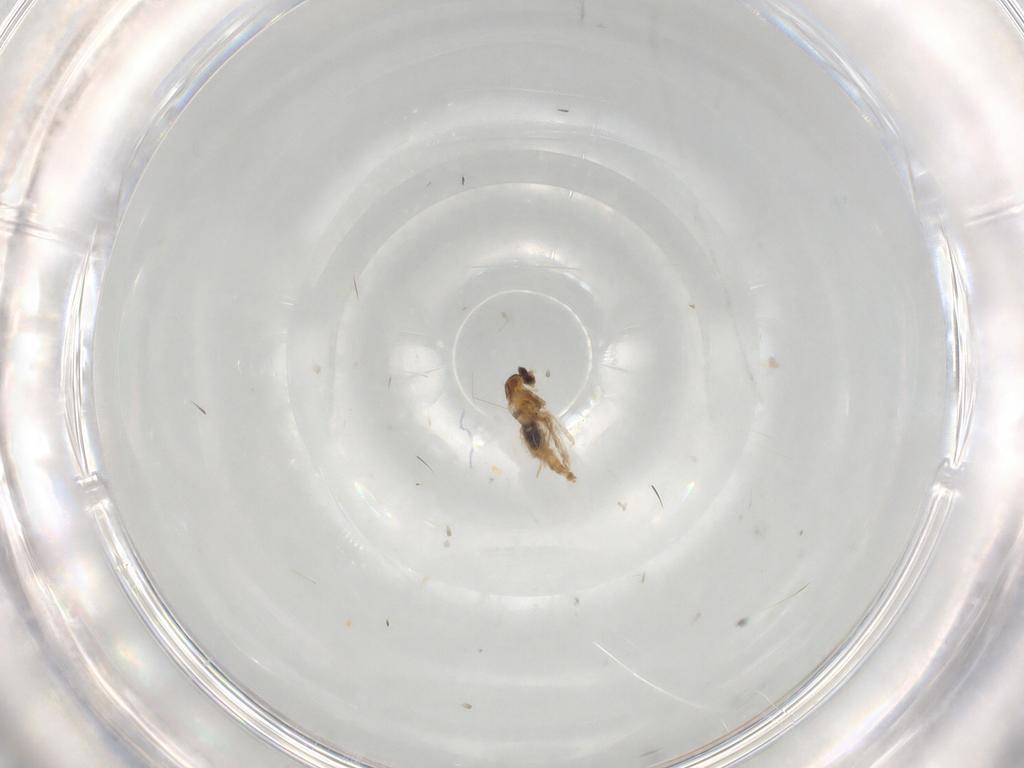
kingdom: Animalia
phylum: Arthropoda
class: Insecta
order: Diptera
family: Cecidomyiidae
